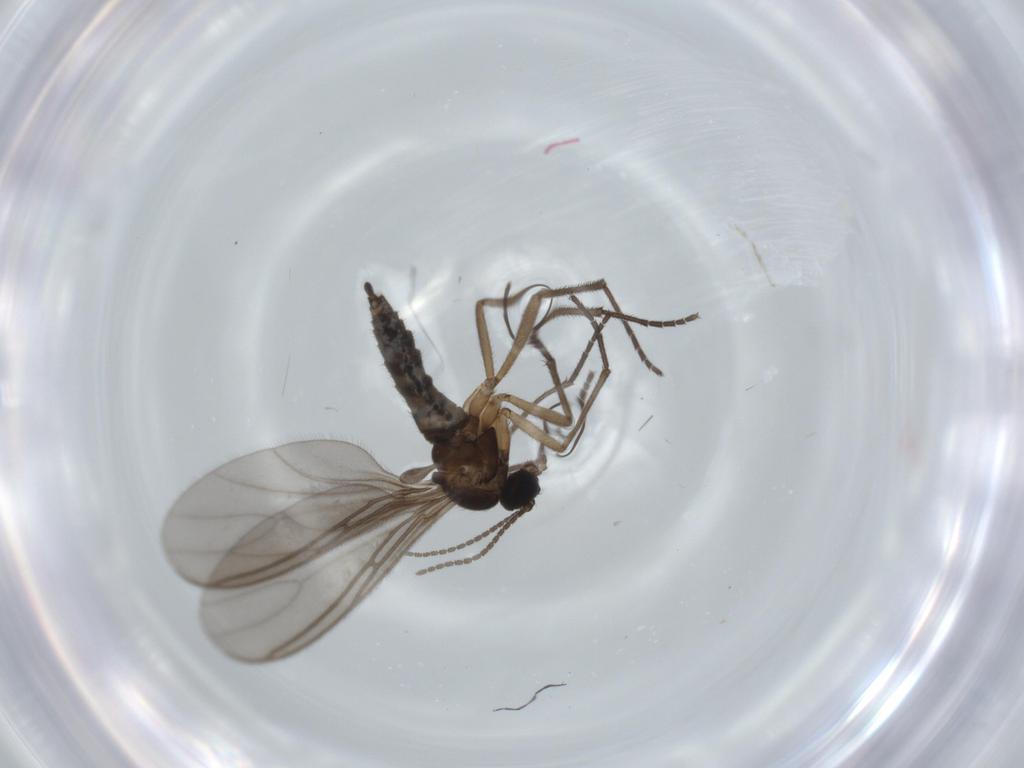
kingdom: Animalia
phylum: Arthropoda
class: Insecta
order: Diptera
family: Sciaridae
